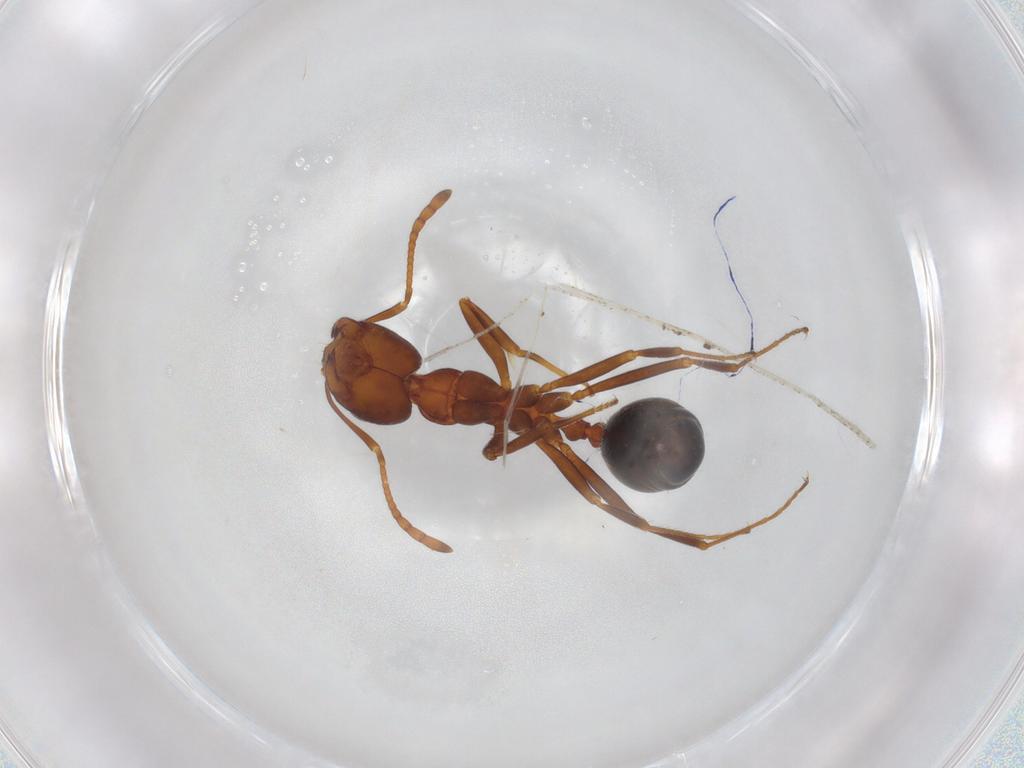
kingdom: Animalia
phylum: Arthropoda
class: Insecta
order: Hymenoptera
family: Formicidae
